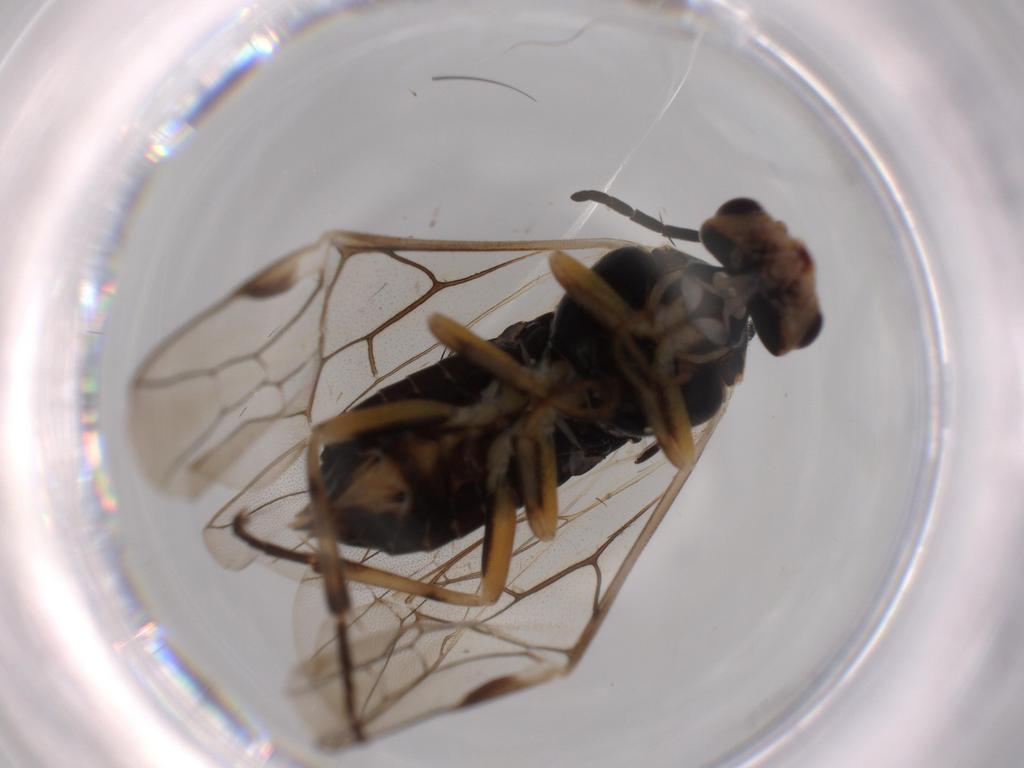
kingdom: Animalia
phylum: Arthropoda
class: Insecta
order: Hymenoptera
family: Tenthredinidae
